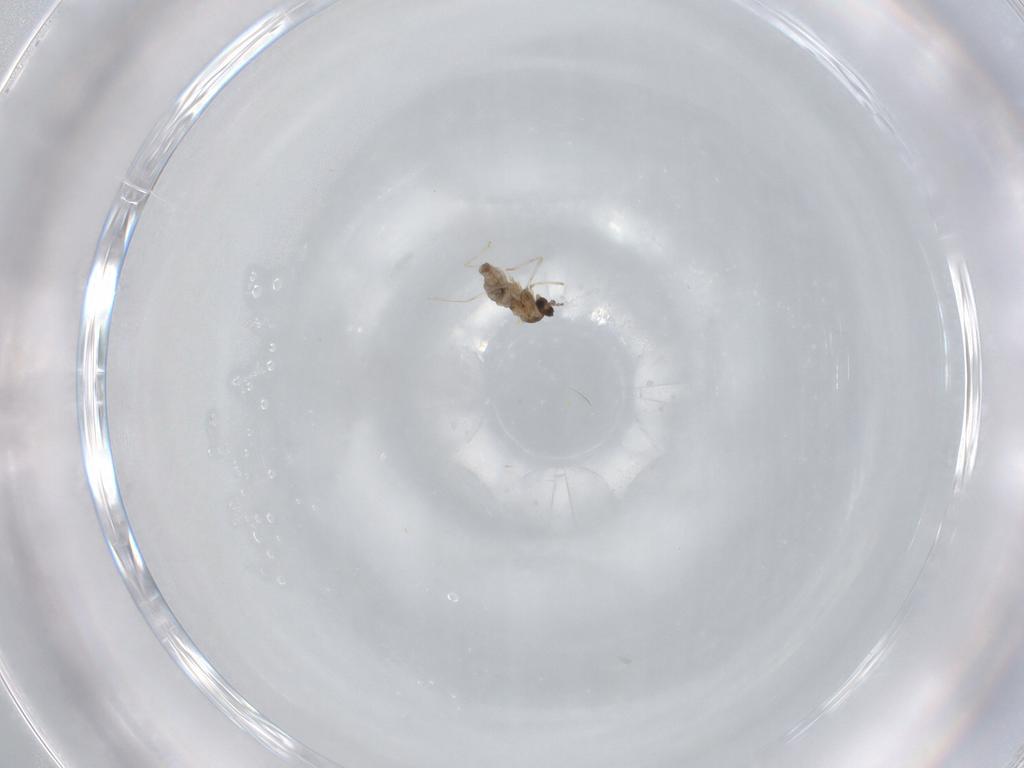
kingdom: Animalia
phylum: Arthropoda
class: Insecta
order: Diptera
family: Cecidomyiidae
